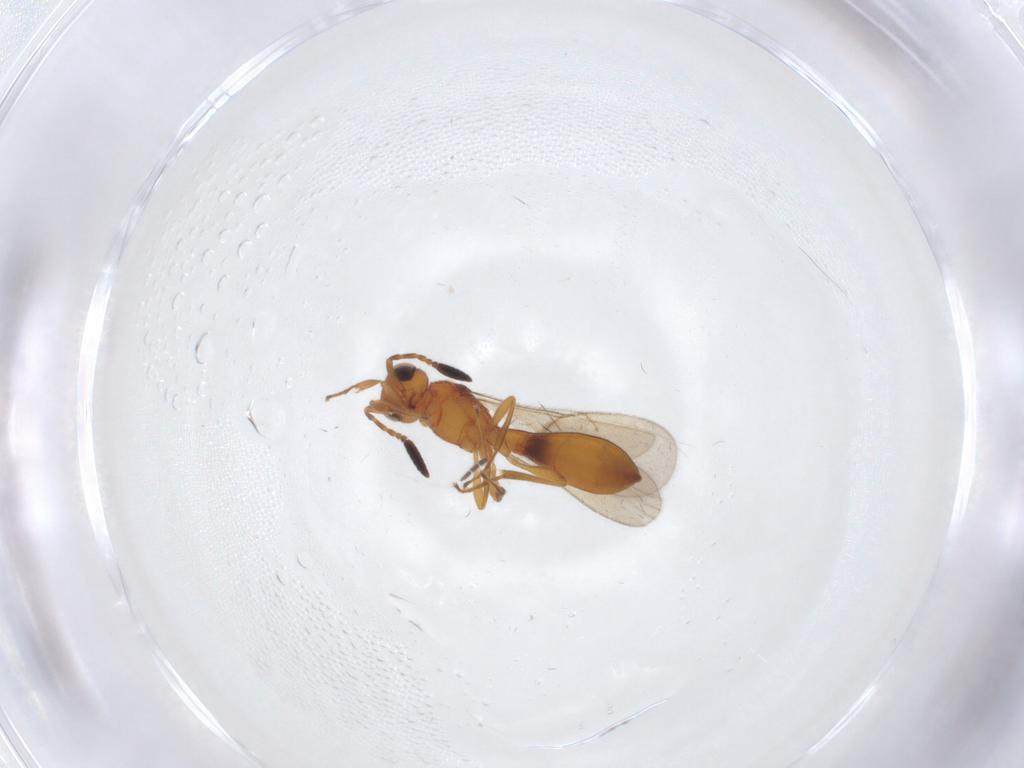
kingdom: Animalia
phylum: Arthropoda
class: Insecta
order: Hymenoptera
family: Scelionidae
